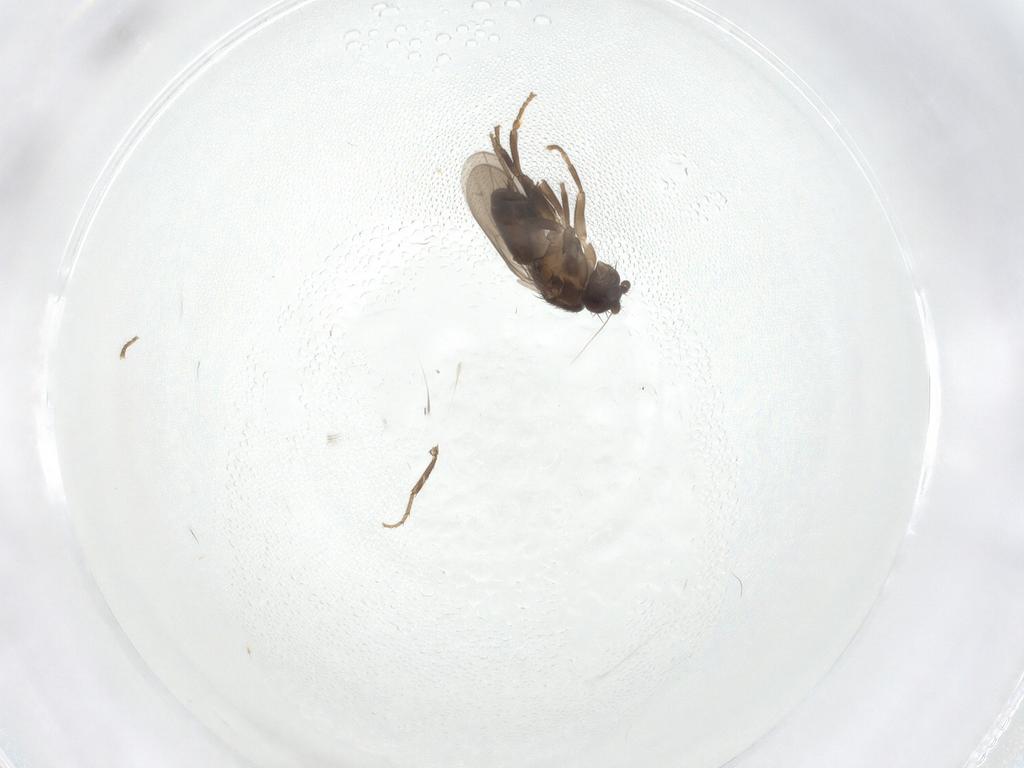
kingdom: Animalia
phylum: Arthropoda
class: Insecta
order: Diptera
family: Sphaeroceridae
